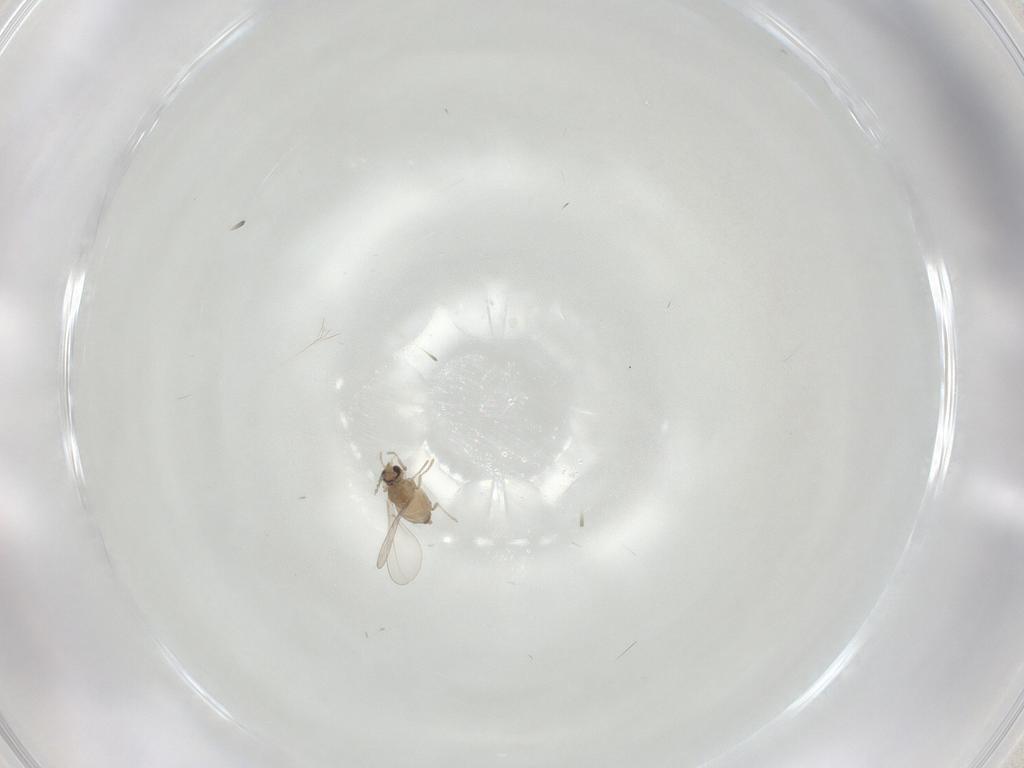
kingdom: Animalia
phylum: Arthropoda
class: Insecta
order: Diptera
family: Cecidomyiidae
